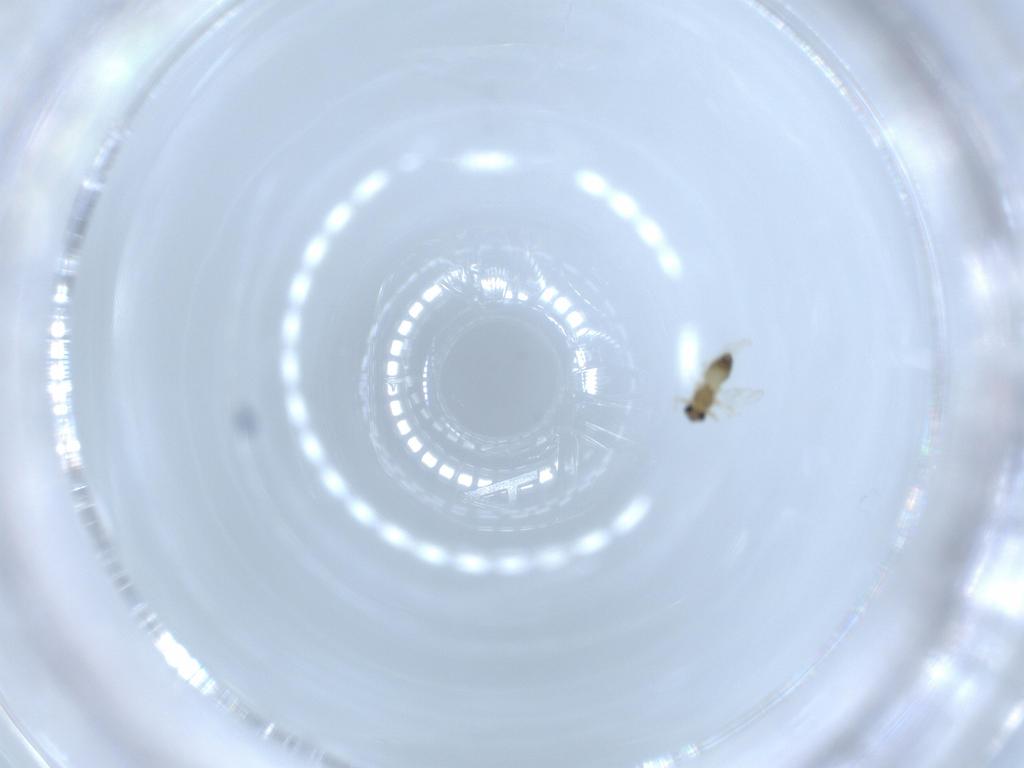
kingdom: Animalia
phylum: Arthropoda
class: Insecta
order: Diptera
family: Chironomidae
